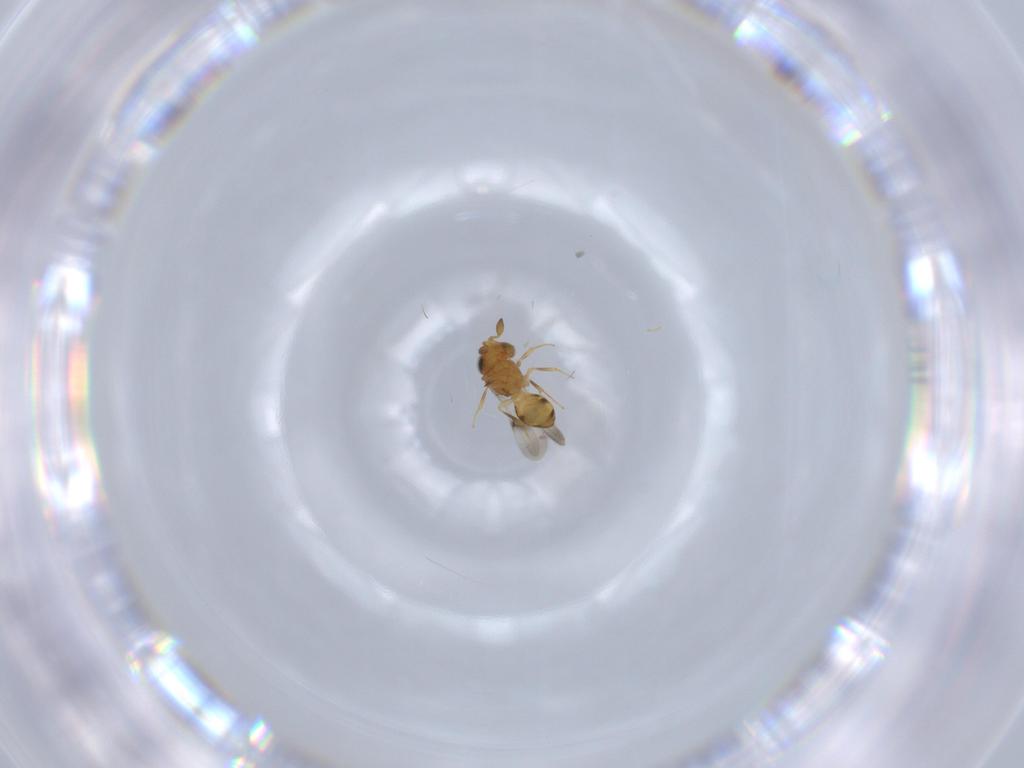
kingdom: Animalia
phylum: Arthropoda
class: Insecta
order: Hymenoptera
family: Scelionidae
